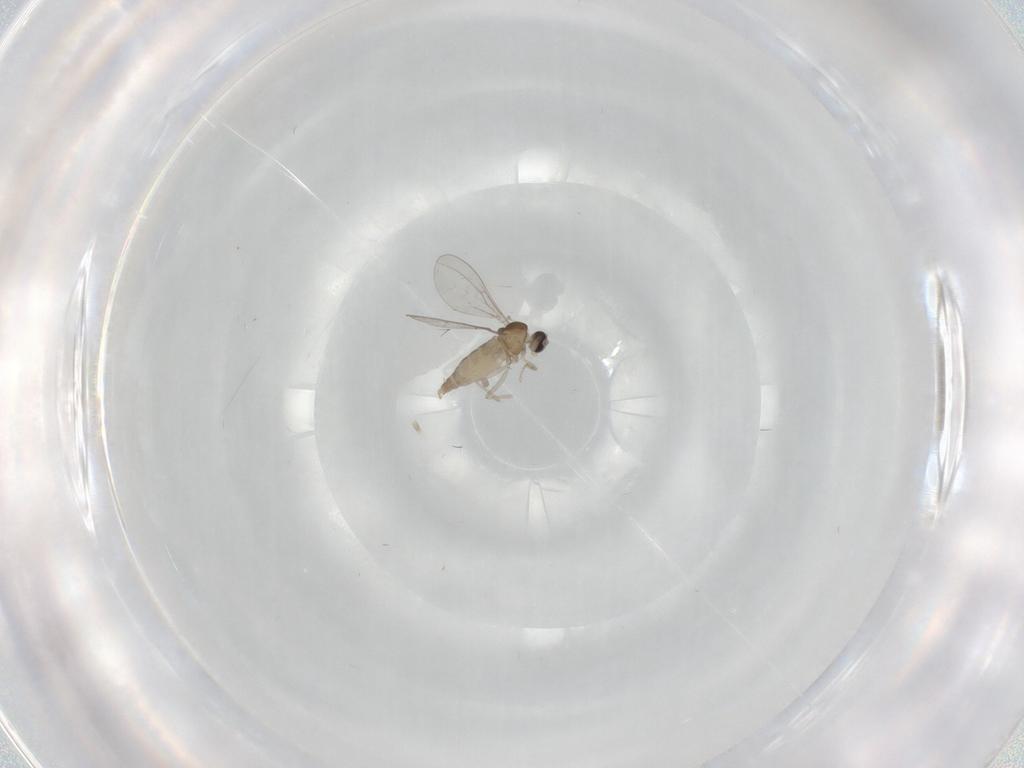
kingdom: Animalia
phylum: Arthropoda
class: Insecta
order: Diptera
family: Cecidomyiidae
